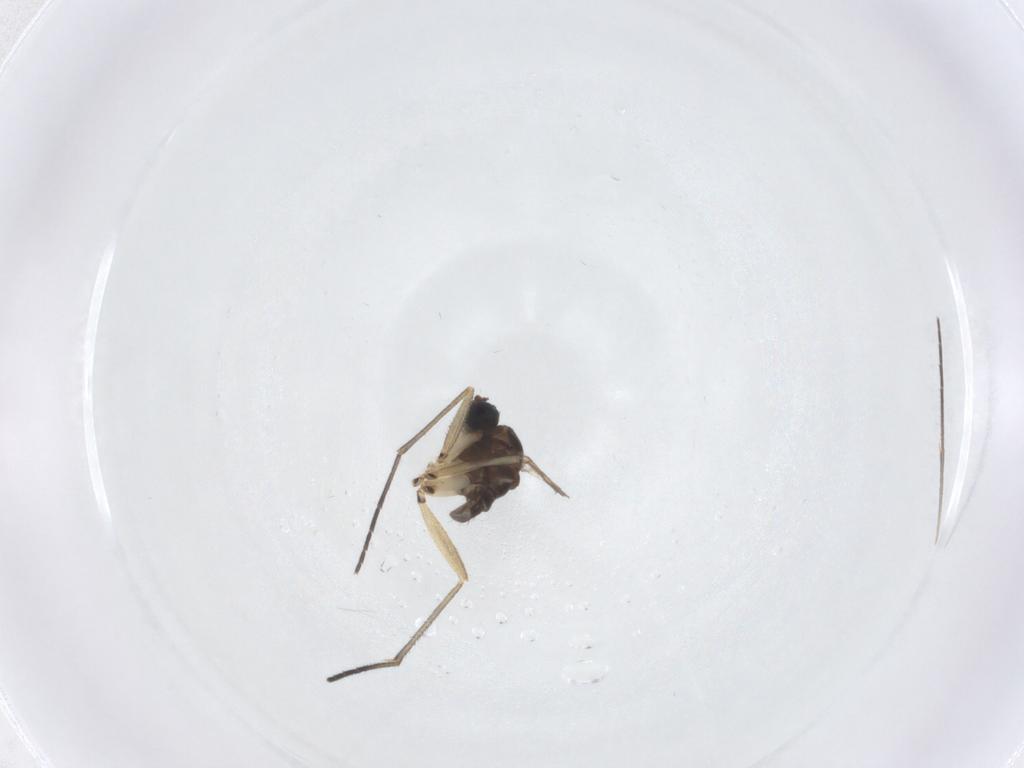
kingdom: Animalia
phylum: Arthropoda
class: Insecta
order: Diptera
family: Sciaridae
